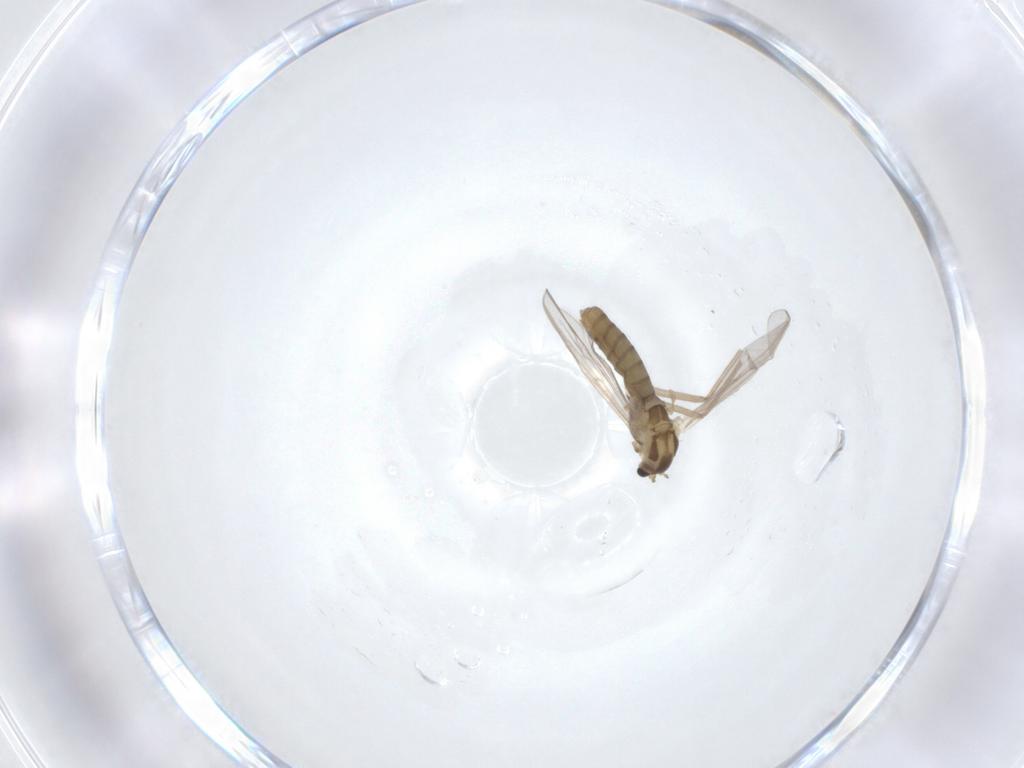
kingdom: Animalia
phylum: Arthropoda
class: Insecta
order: Diptera
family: Chironomidae
